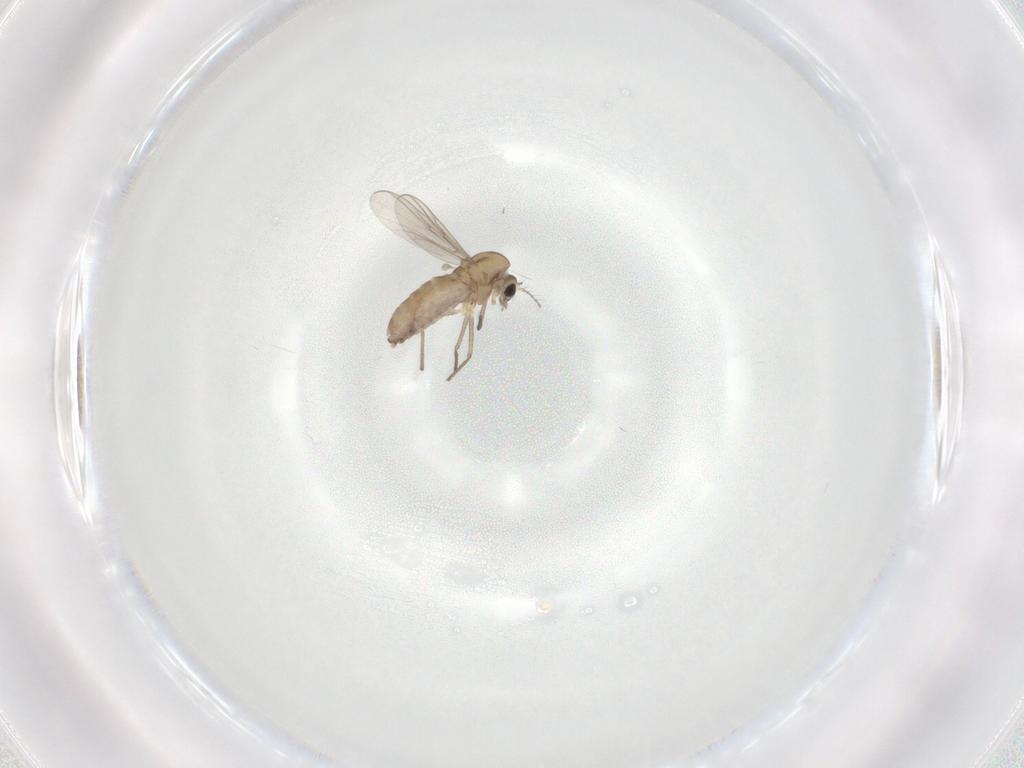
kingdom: Animalia
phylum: Arthropoda
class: Insecta
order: Diptera
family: Chironomidae
